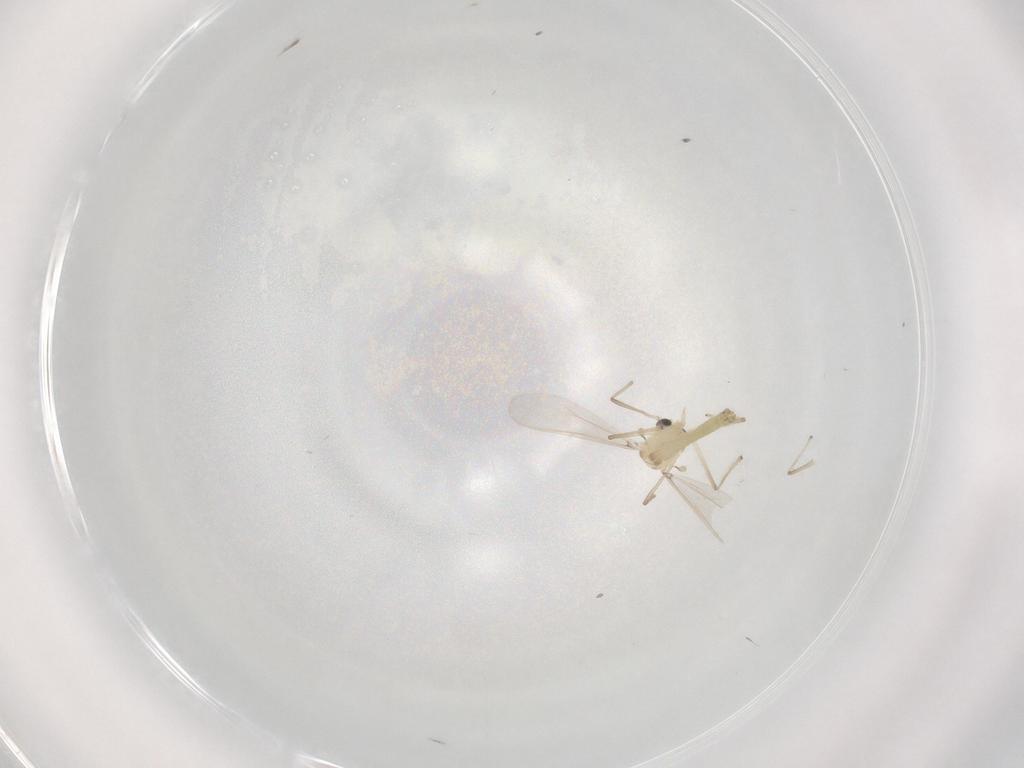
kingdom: Animalia
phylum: Arthropoda
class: Insecta
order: Diptera
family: Chironomidae
